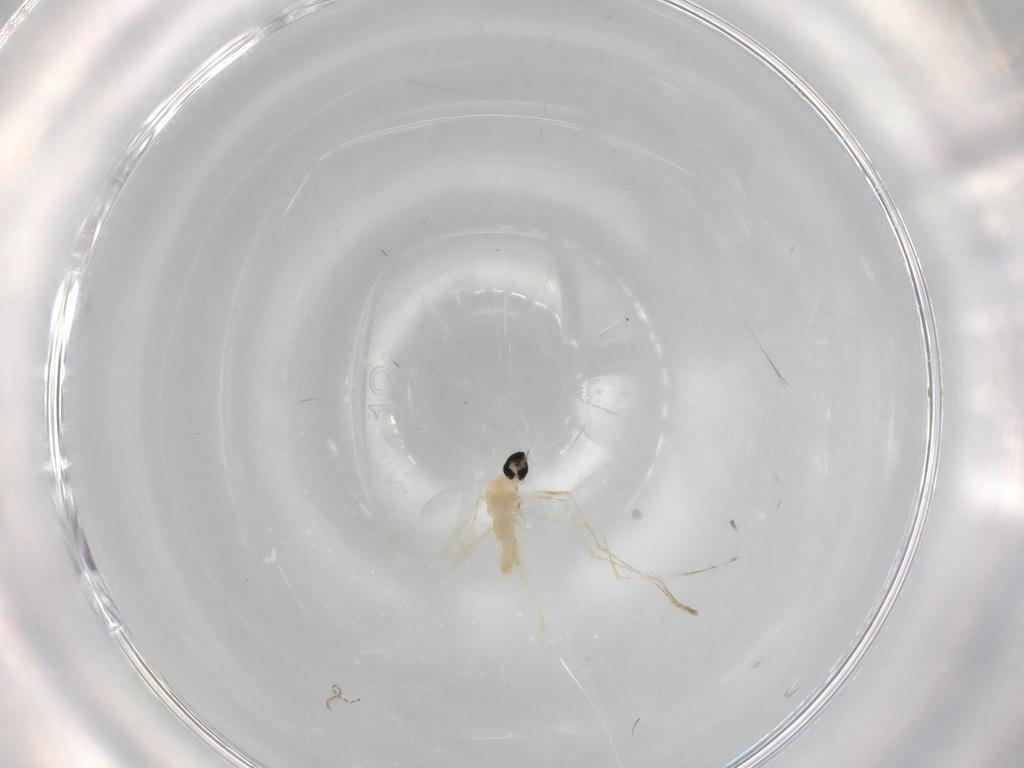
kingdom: Animalia
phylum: Arthropoda
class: Insecta
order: Diptera
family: Cecidomyiidae
